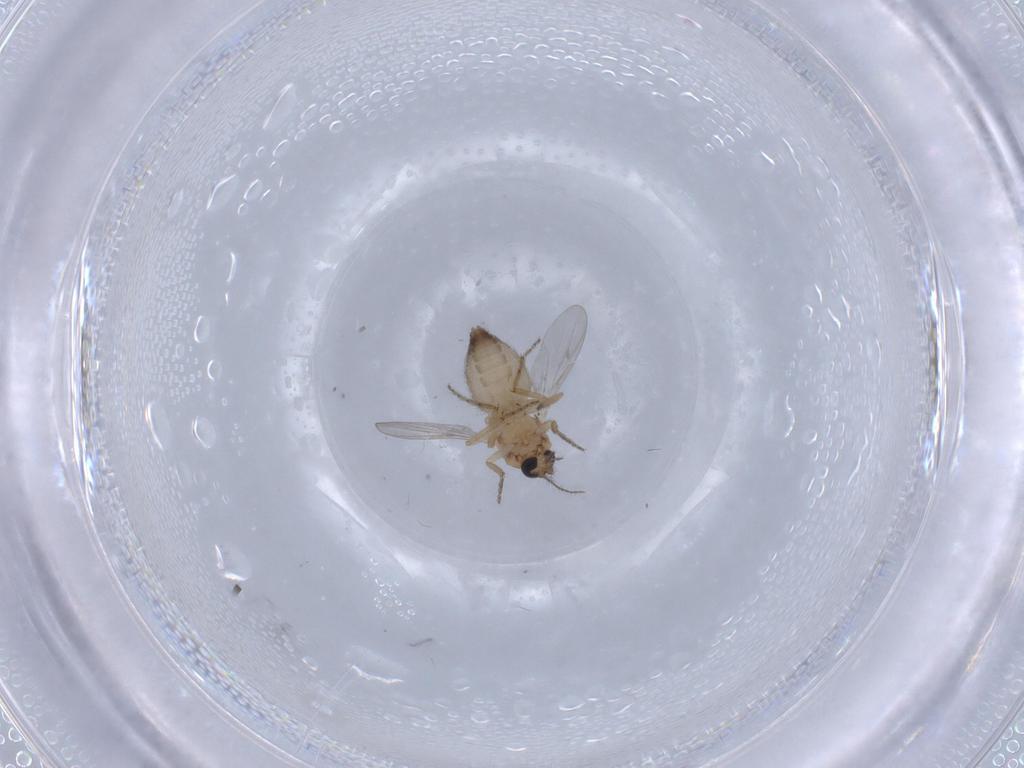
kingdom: Animalia
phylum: Arthropoda
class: Insecta
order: Diptera
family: Ceratopogonidae
